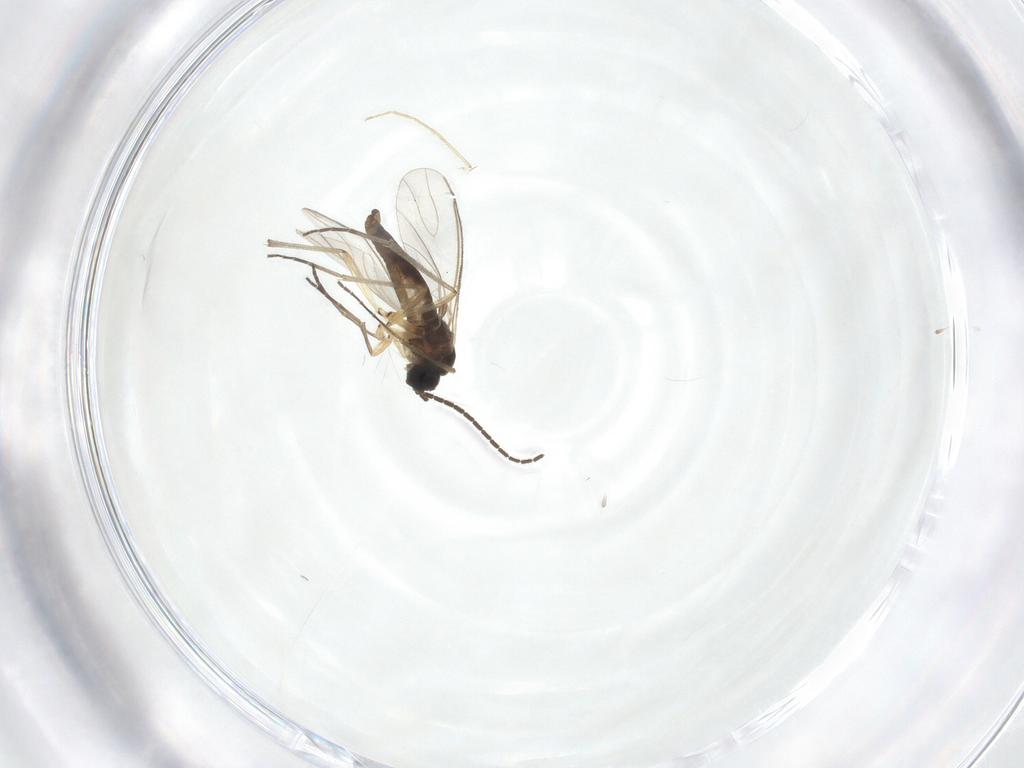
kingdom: Animalia
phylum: Arthropoda
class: Insecta
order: Diptera
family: Sciaridae
